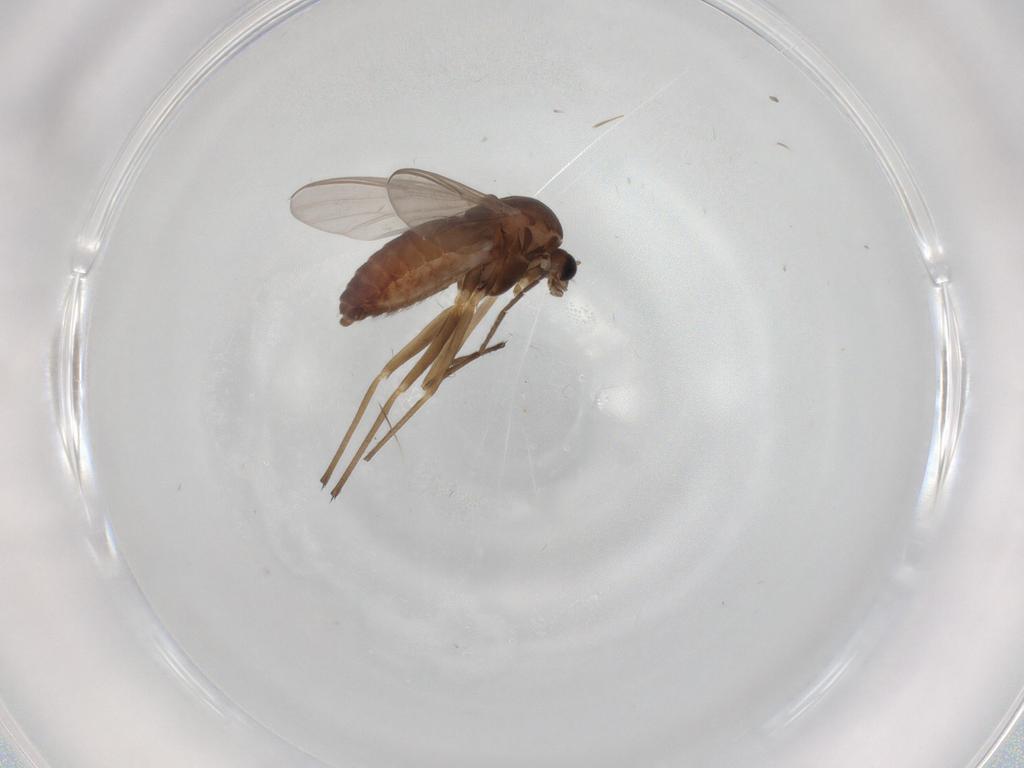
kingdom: Animalia
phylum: Arthropoda
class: Insecta
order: Diptera
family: Chironomidae
